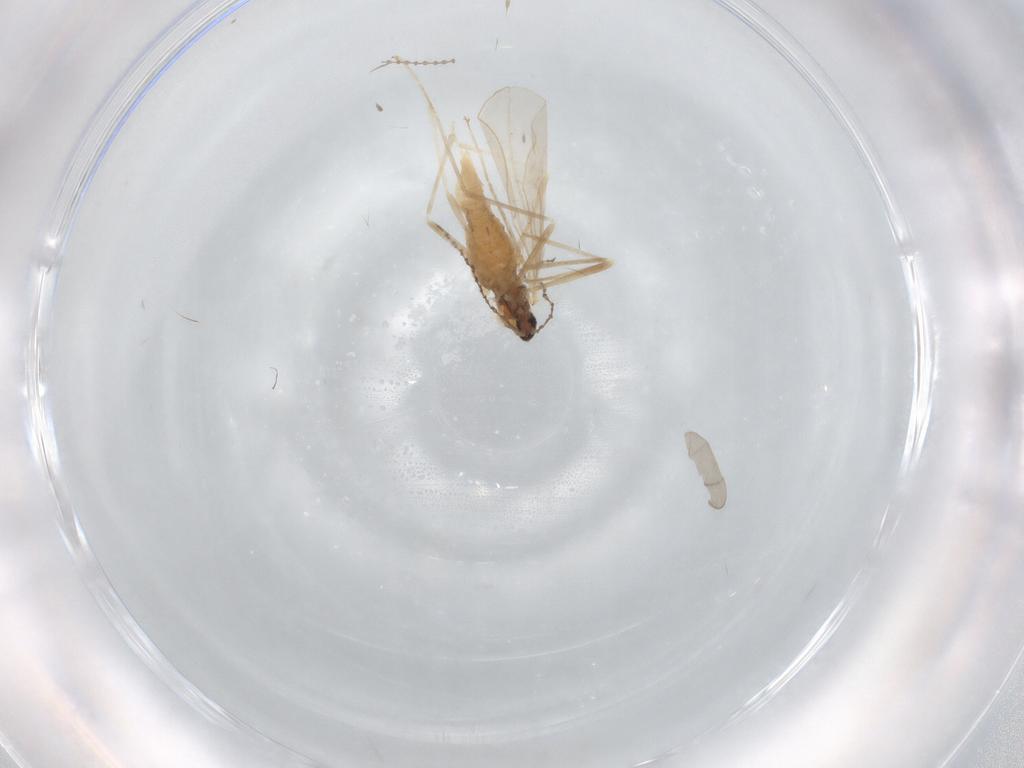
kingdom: Animalia
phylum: Arthropoda
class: Insecta
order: Diptera
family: Cecidomyiidae
